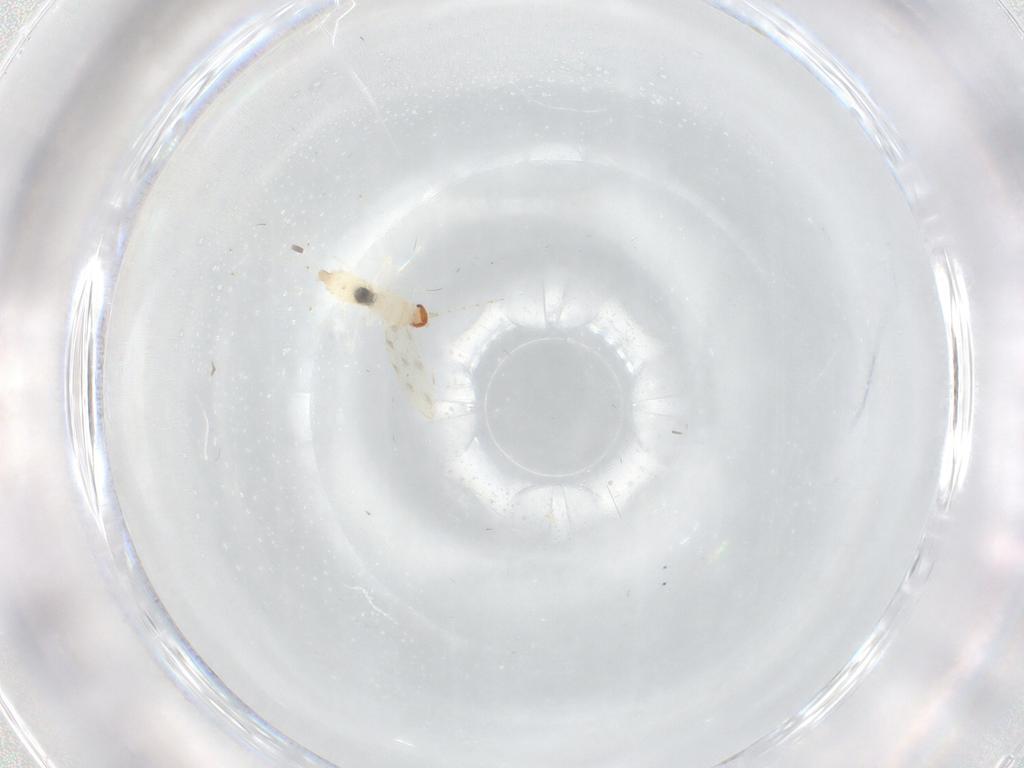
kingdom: Animalia
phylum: Arthropoda
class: Insecta
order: Diptera
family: Cecidomyiidae
